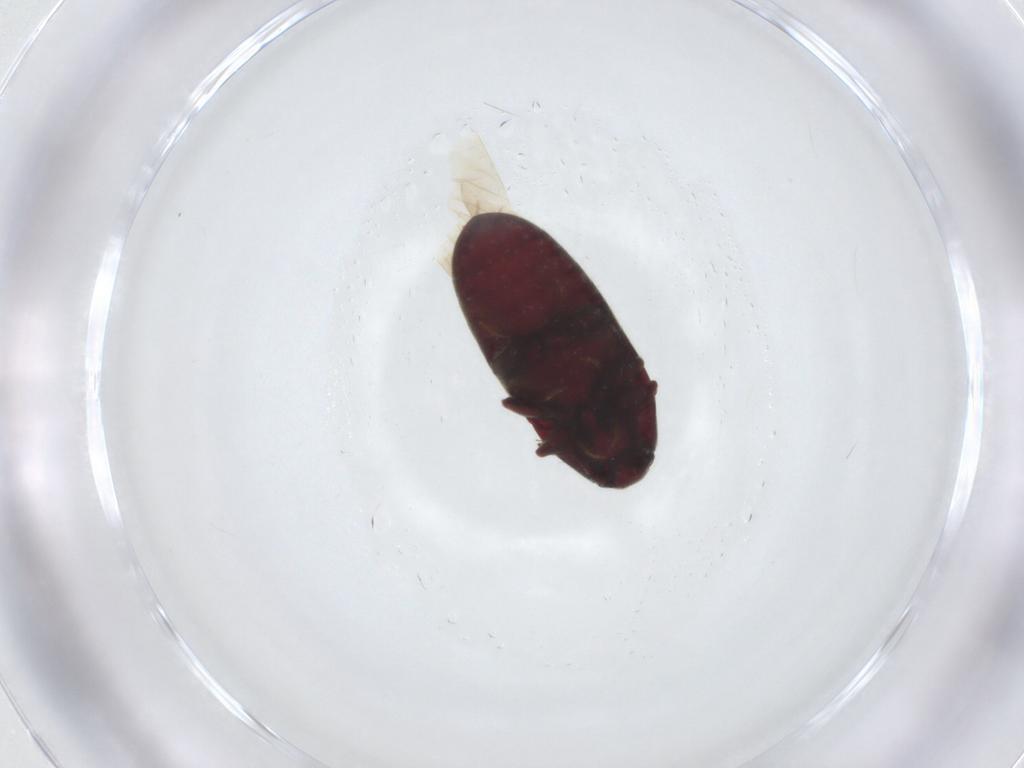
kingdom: Animalia
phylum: Arthropoda
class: Insecta
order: Coleoptera
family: Throscidae
